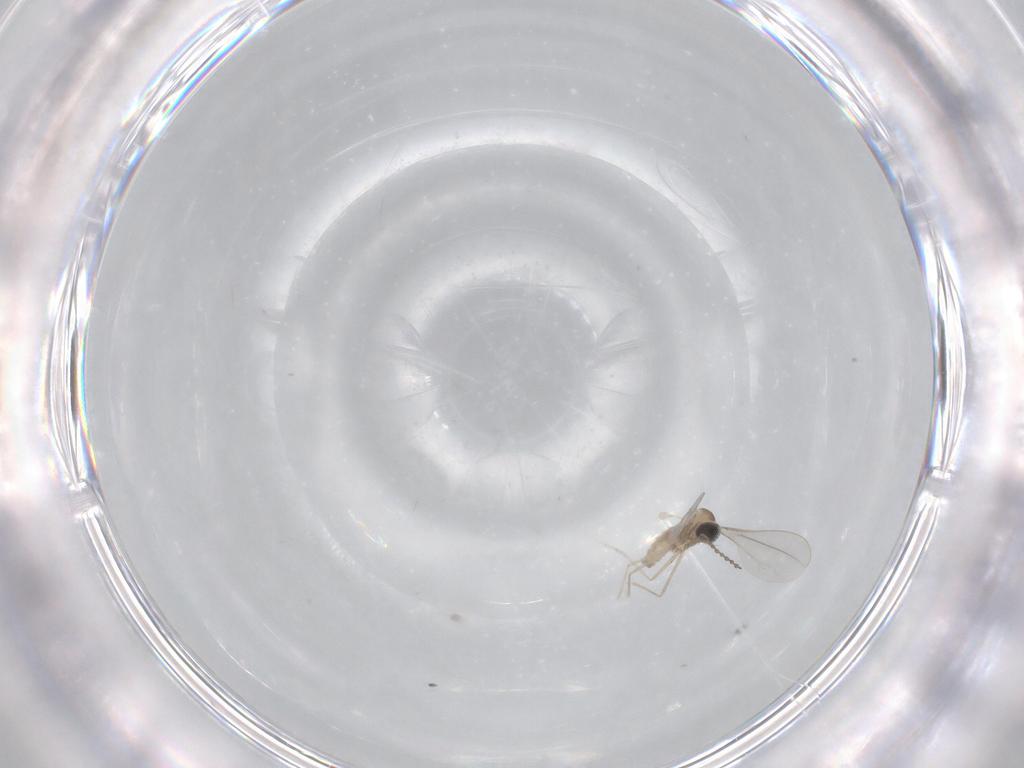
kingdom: Animalia
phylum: Arthropoda
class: Insecta
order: Diptera
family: Cecidomyiidae
